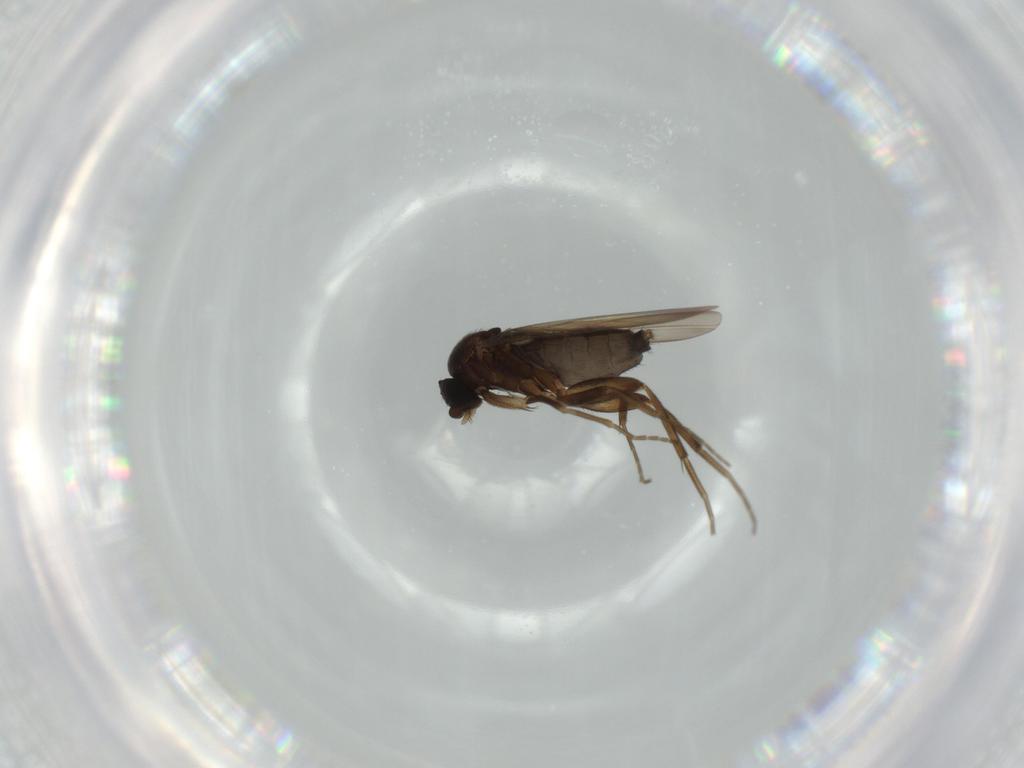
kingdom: Animalia
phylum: Arthropoda
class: Insecta
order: Diptera
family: Phoridae
